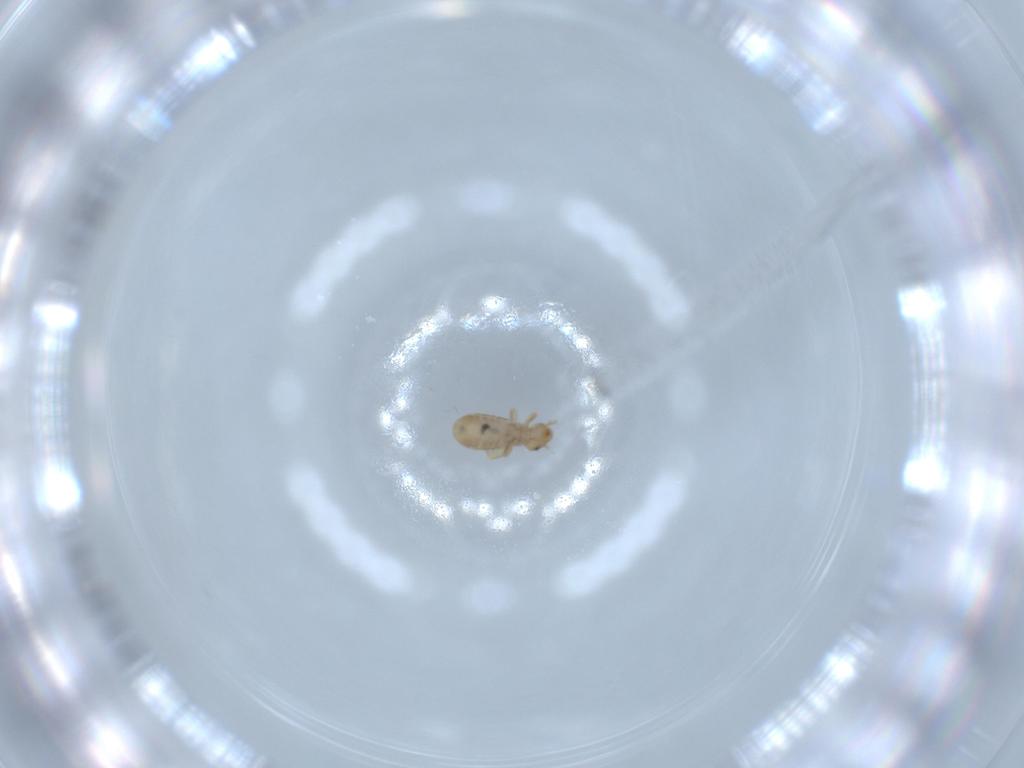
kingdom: Animalia
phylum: Arthropoda
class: Insecta
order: Psocodea
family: Liposcelididae
